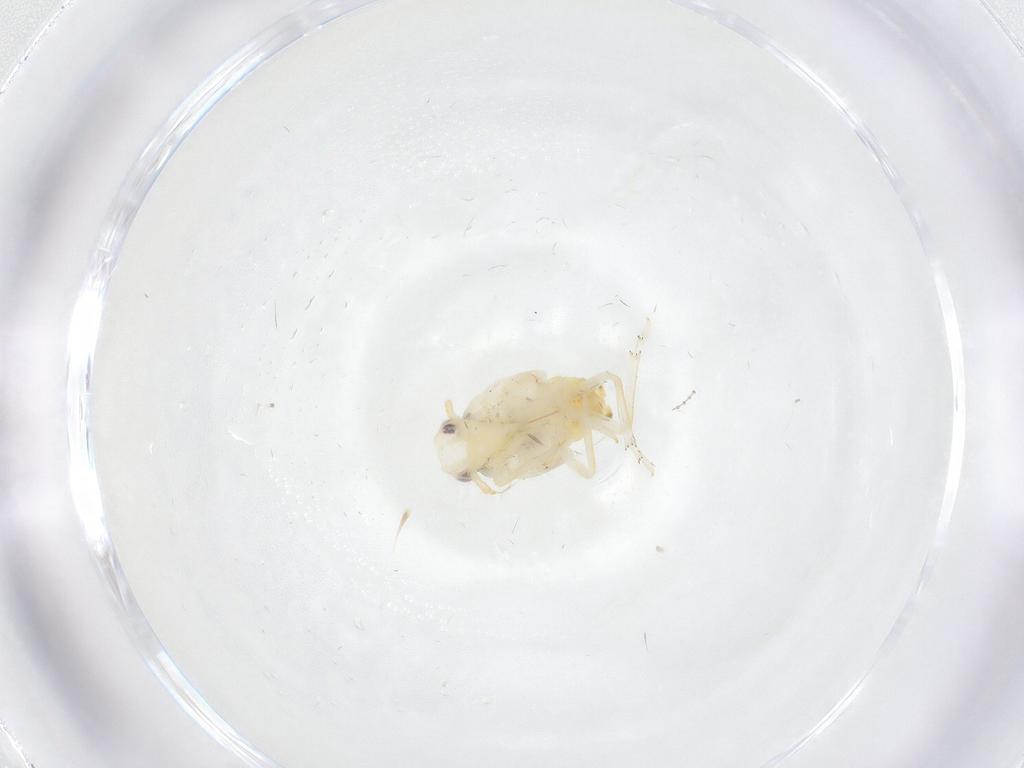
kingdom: Animalia
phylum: Arthropoda
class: Insecta
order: Hemiptera
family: Flatidae
